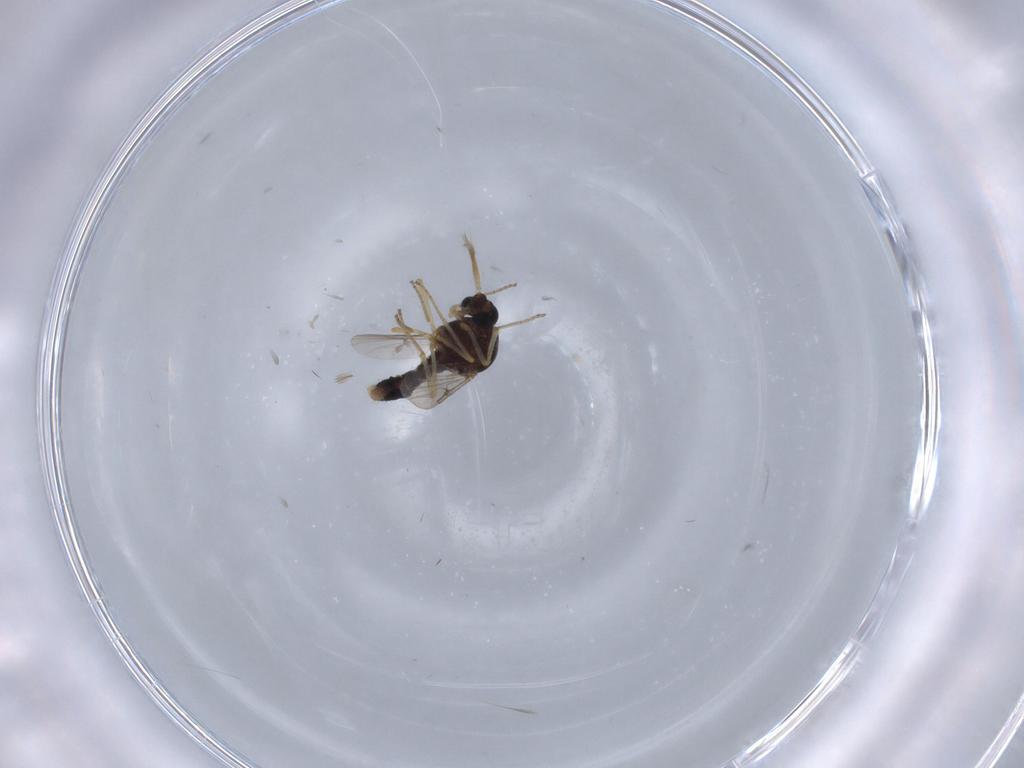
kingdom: Animalia
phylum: Arthropoda
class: Insecta
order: Diptera
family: Ceratopogonidae
